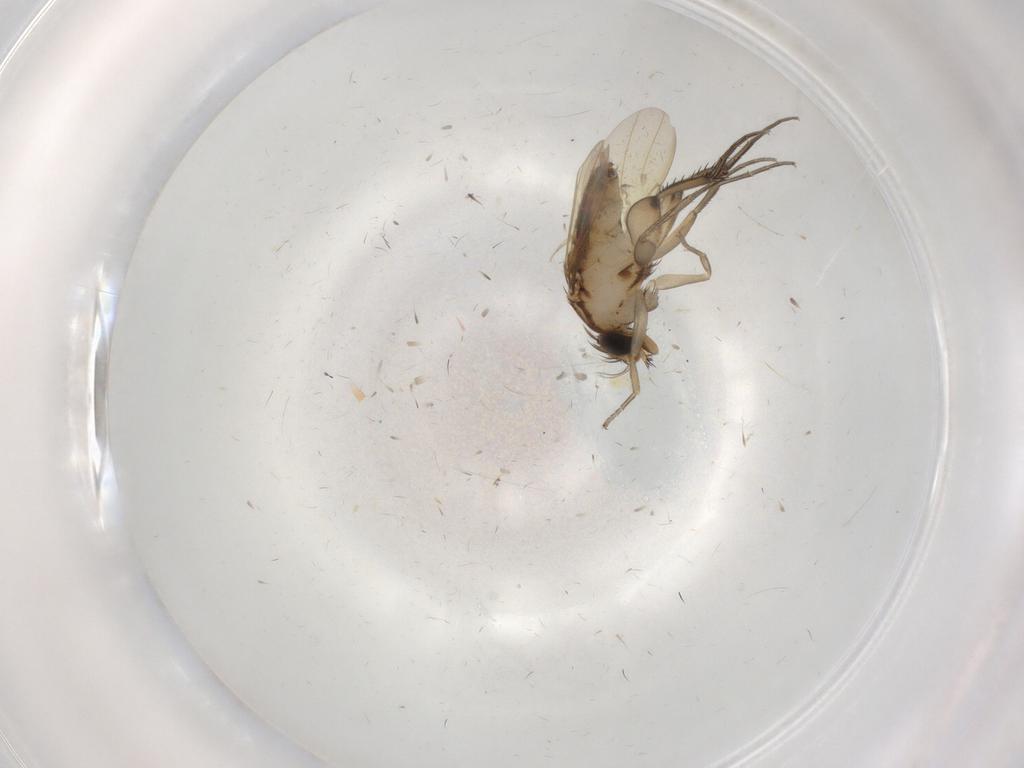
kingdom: Animalia
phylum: Arthropoda
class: Insecta
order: Diptera
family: Phoridae
